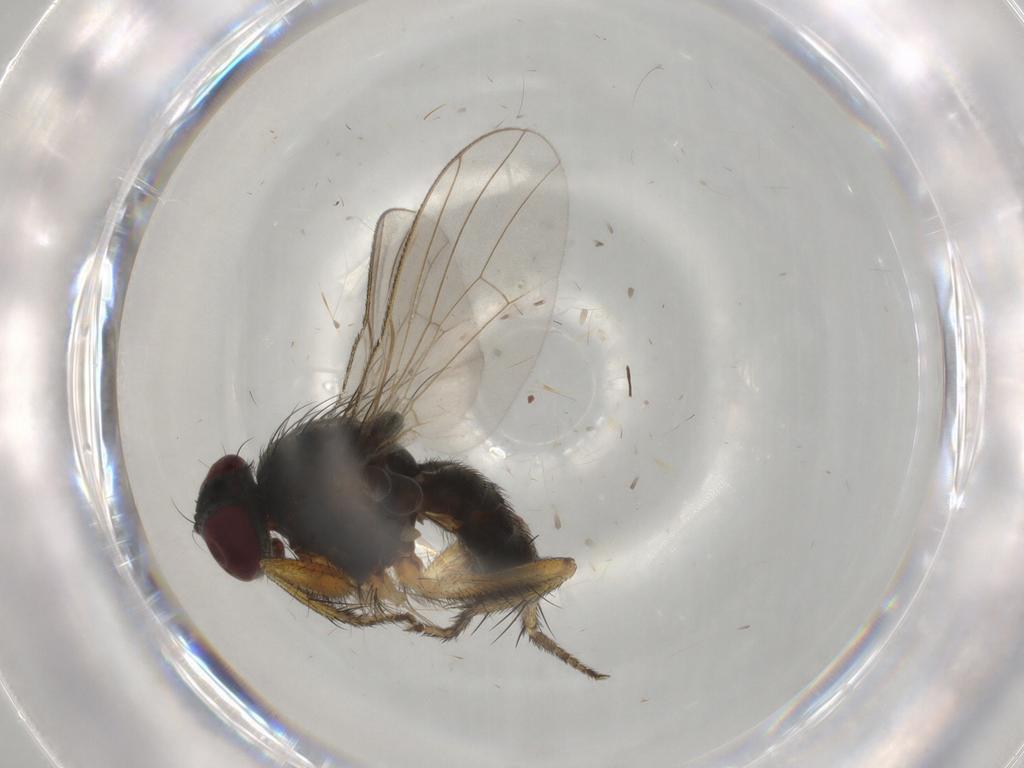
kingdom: Animalia
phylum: Arthropoda
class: Insecta
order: Diptera
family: Muscidae
